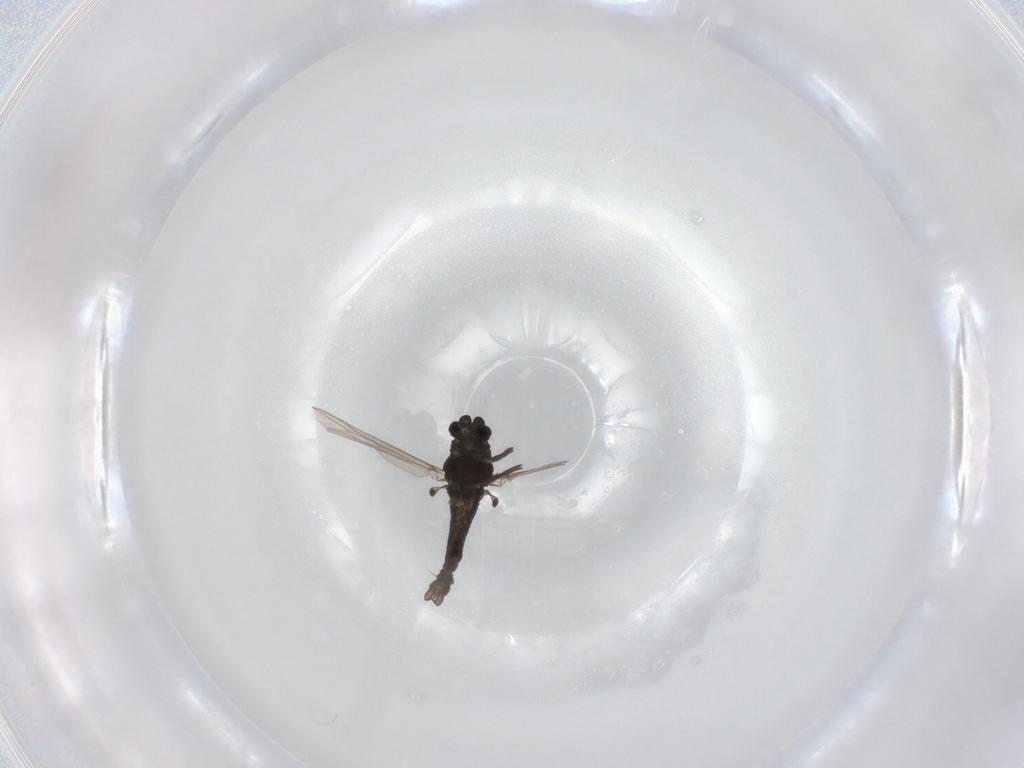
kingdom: Animalia
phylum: Arthropoda
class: Insecta
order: Diptera
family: Chironomidae
